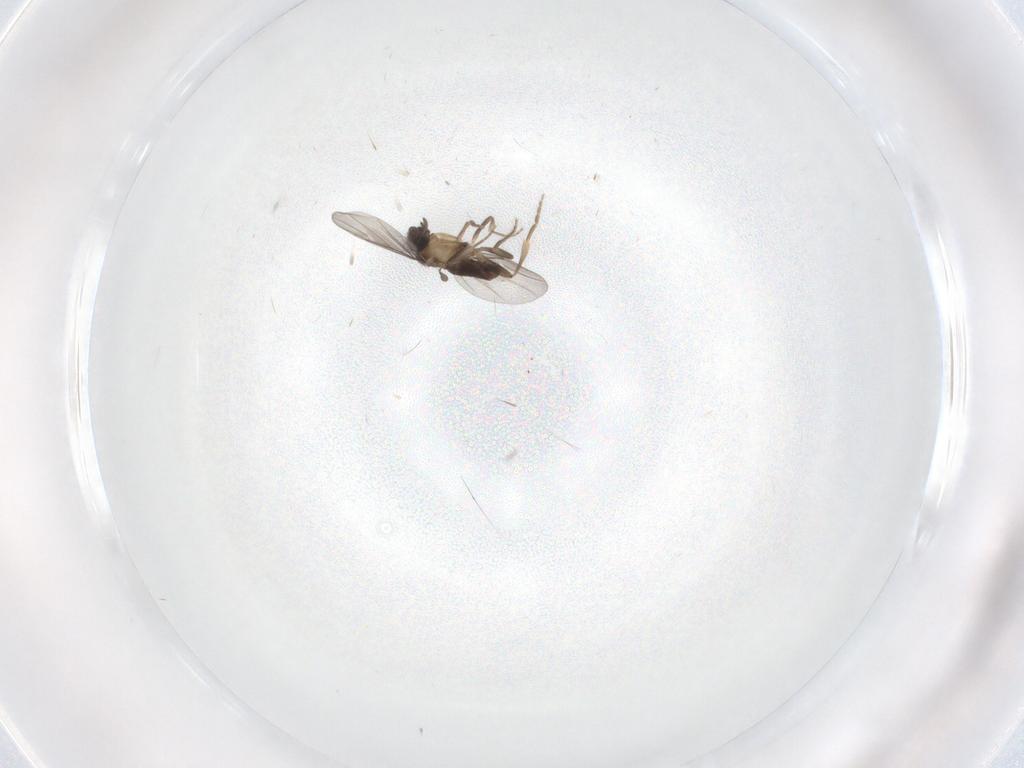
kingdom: Animalia
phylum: Arthropoda
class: Insecta
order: Diptera
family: Phoridae
